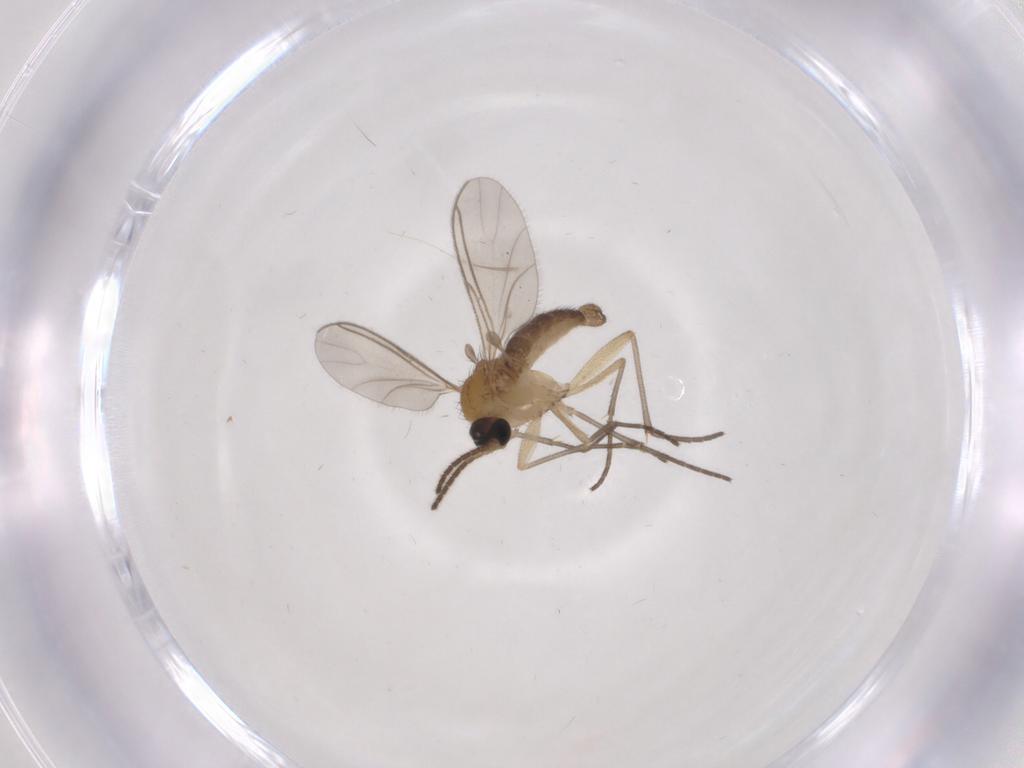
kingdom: Animalia
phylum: Arthropoda
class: Insecta
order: Diptera
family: Sciaridae
